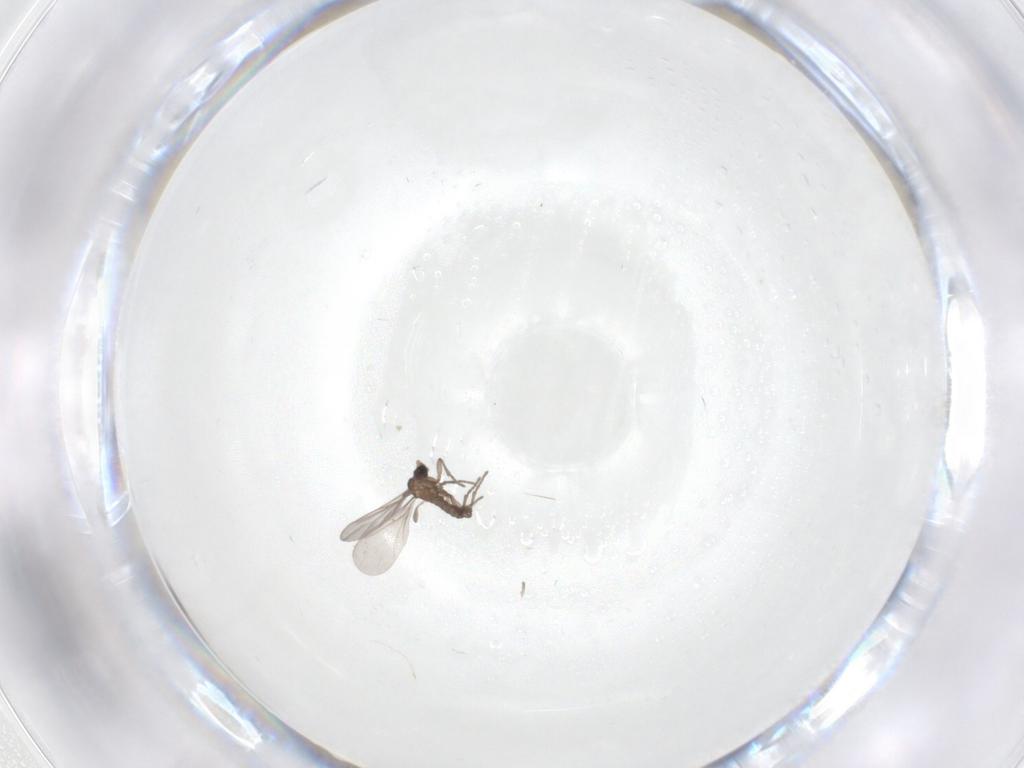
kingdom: Animalia
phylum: Arthropoda
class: Insecta
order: Diptera
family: Sciaridae
